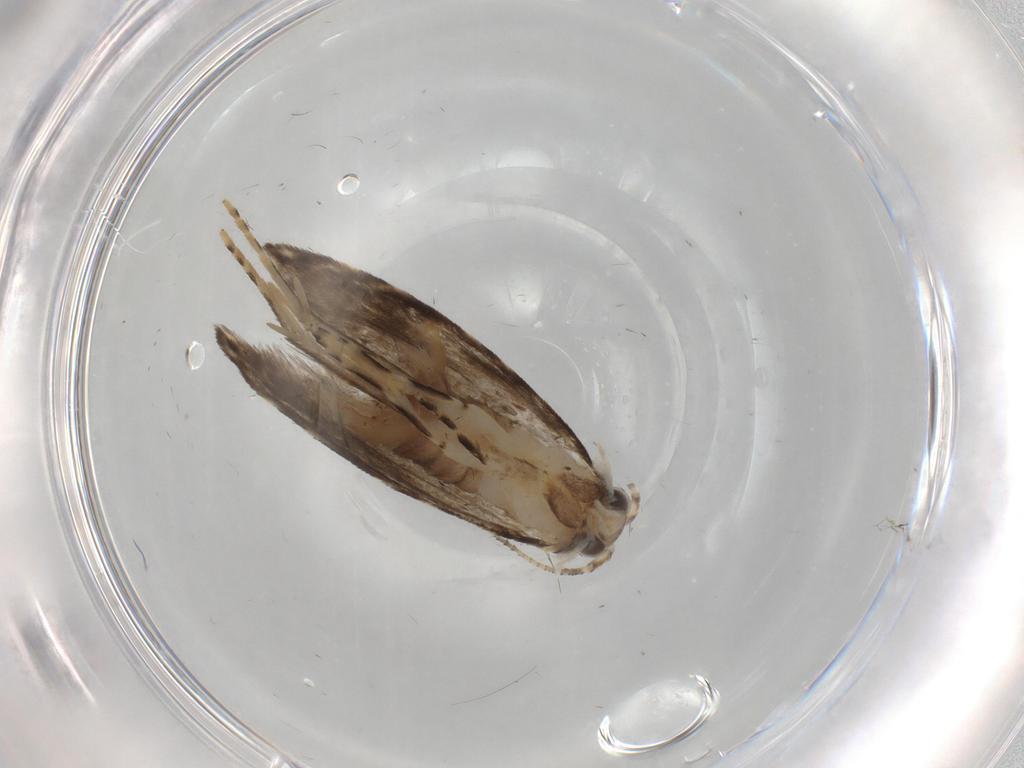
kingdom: Animalia
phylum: Arthropoda
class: Insecta
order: Lepidoptera
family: Tineidae
